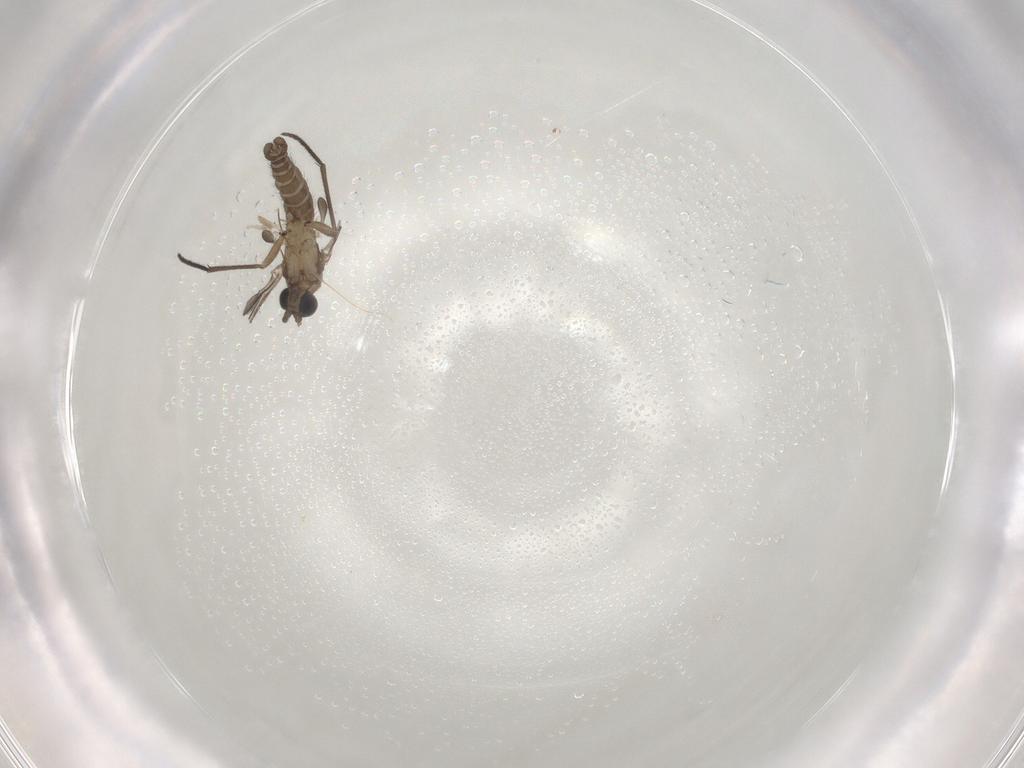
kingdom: Animalia
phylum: Arthropoda
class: Insecta
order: Diptera
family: Sciaridae
